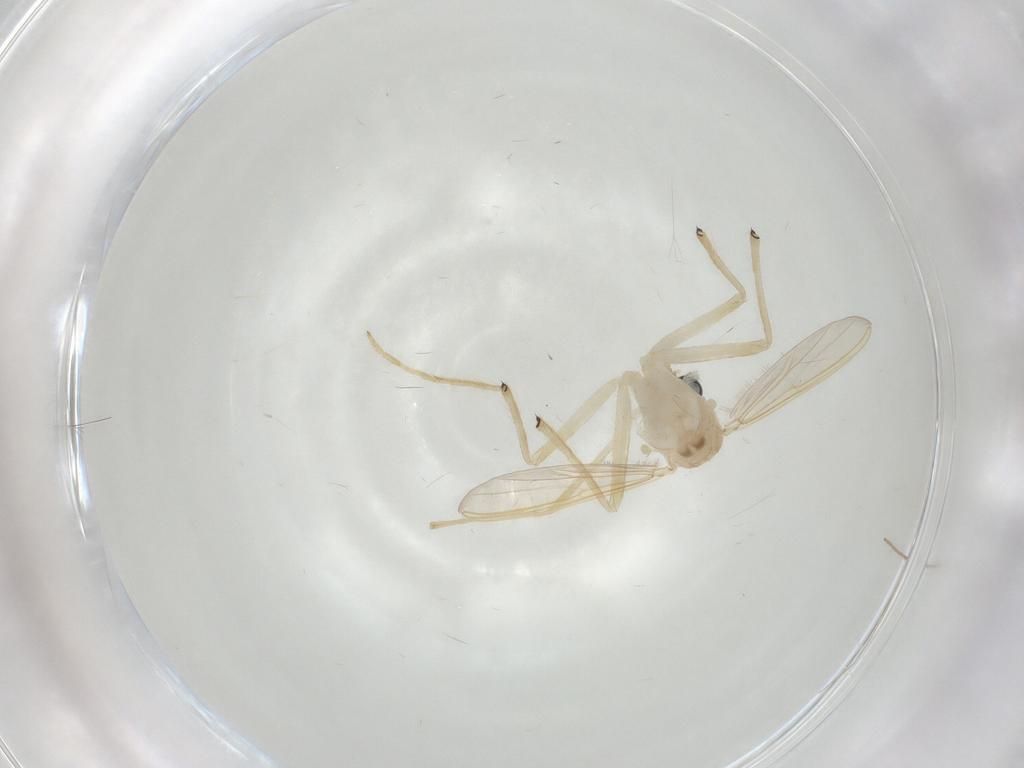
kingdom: Animalia
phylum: Arthropoda
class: Insecta
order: Diptera
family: Chironomidae
